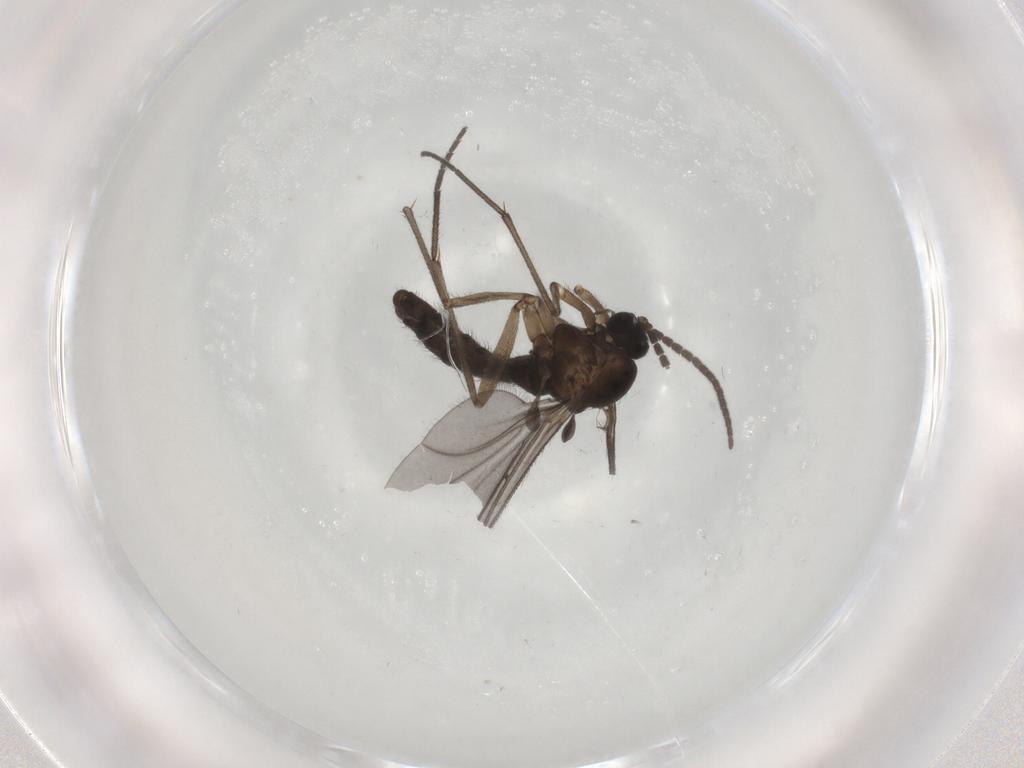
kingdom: Animalia
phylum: Arthropoda
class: Insecta
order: Diptera
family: Sciaridae
